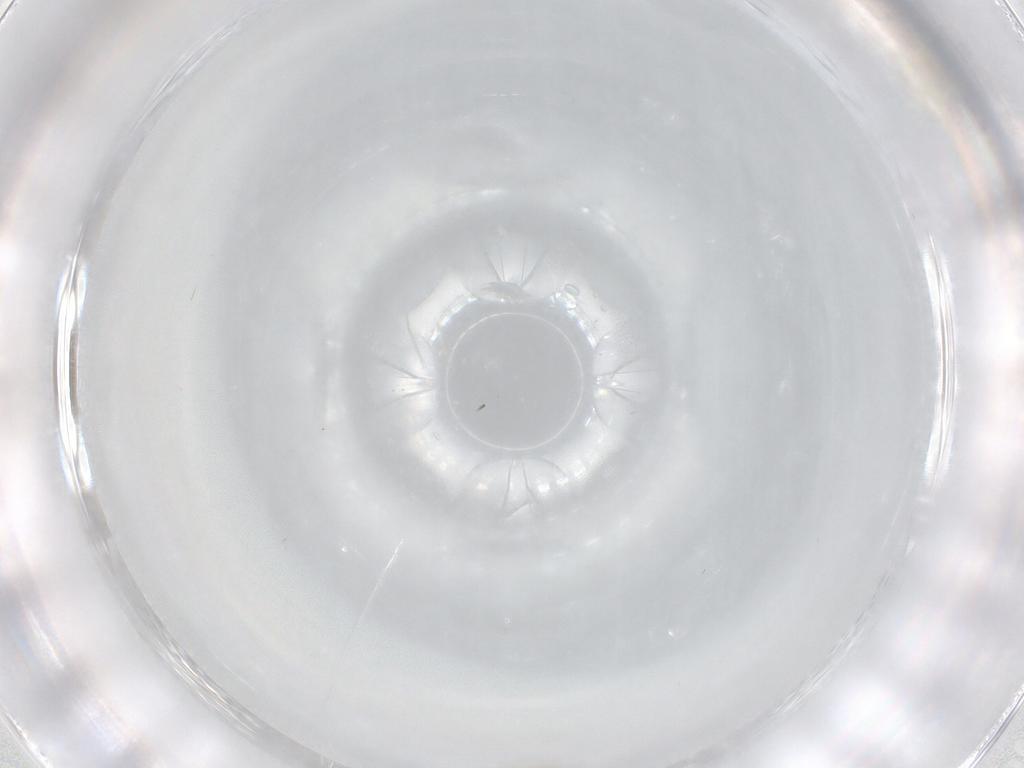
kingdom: Animalia
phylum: Arthropoda
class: Insecta
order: Diptera
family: Cecidomyiidae
